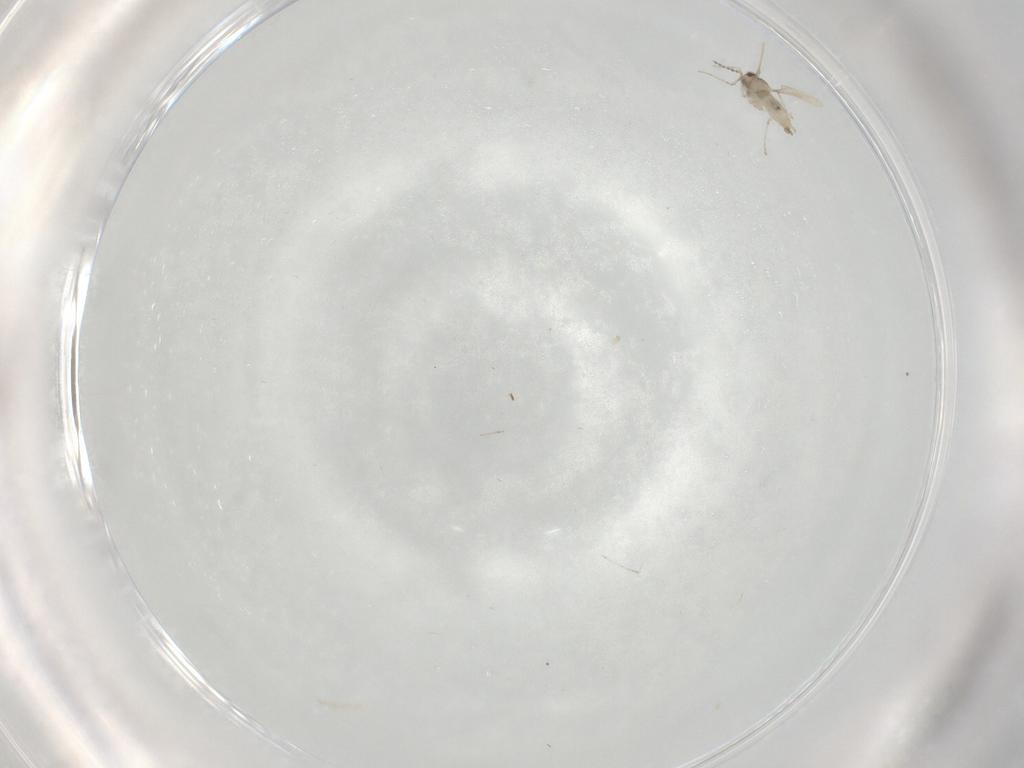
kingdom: Animalia
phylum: Arthropoda
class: Insecta
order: Diptera
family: Cecidomyiidae
